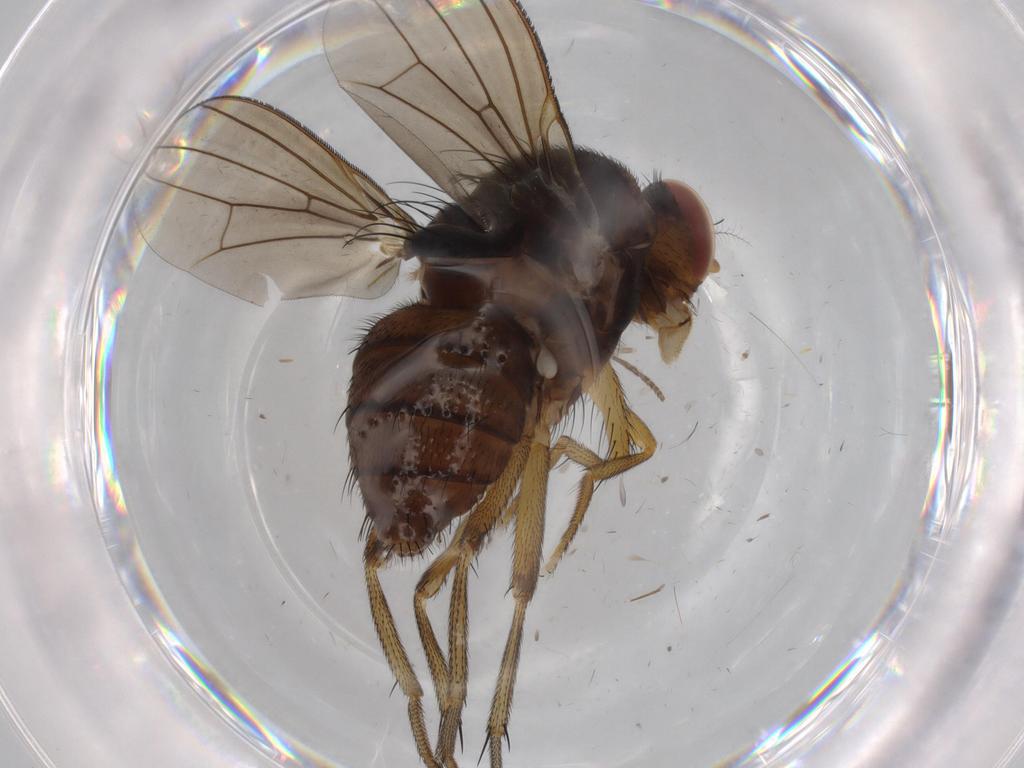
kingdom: Animalia
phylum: Arthropoda
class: Insecta
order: Diptera
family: Drosophilidae
